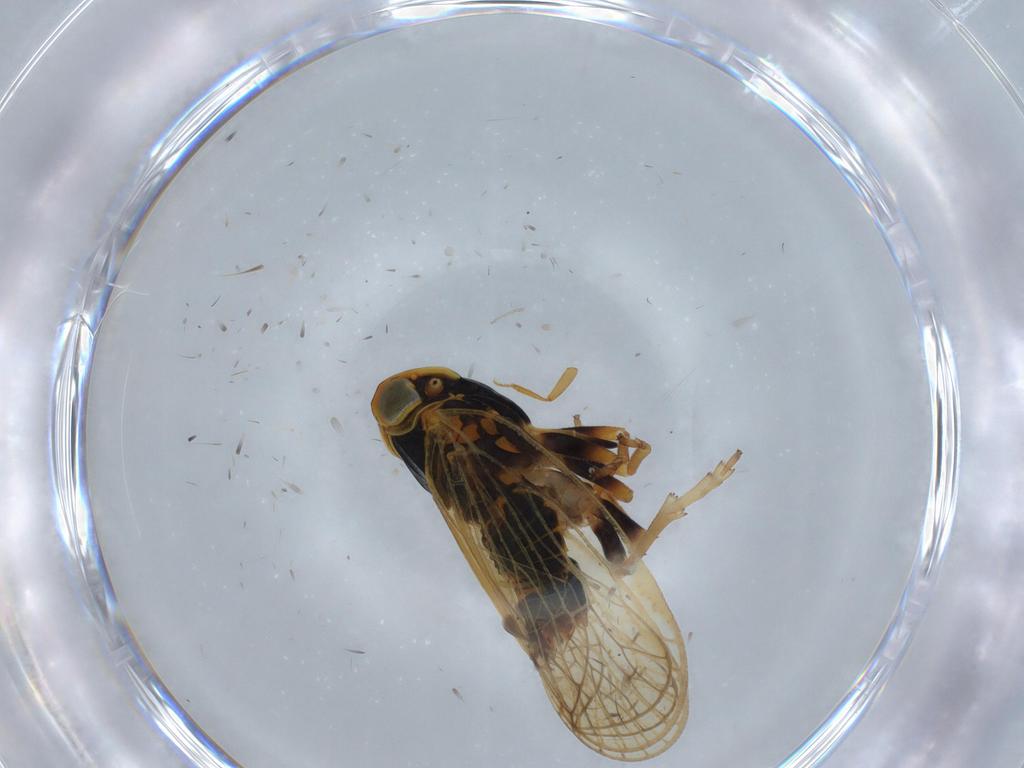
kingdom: Animalia
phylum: Arthropoda
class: Insecta
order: Hemiptera
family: Cixiidae
